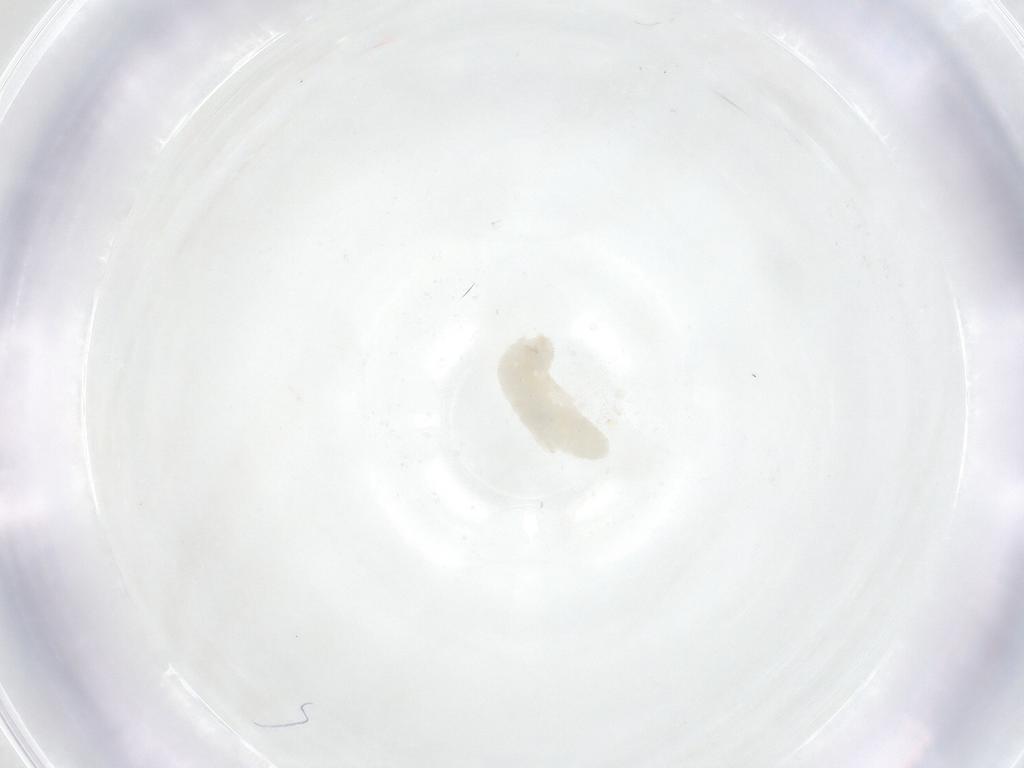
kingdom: Animalia
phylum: Arthropoda
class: Insecta
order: Diptera
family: Cecidomyiidae
